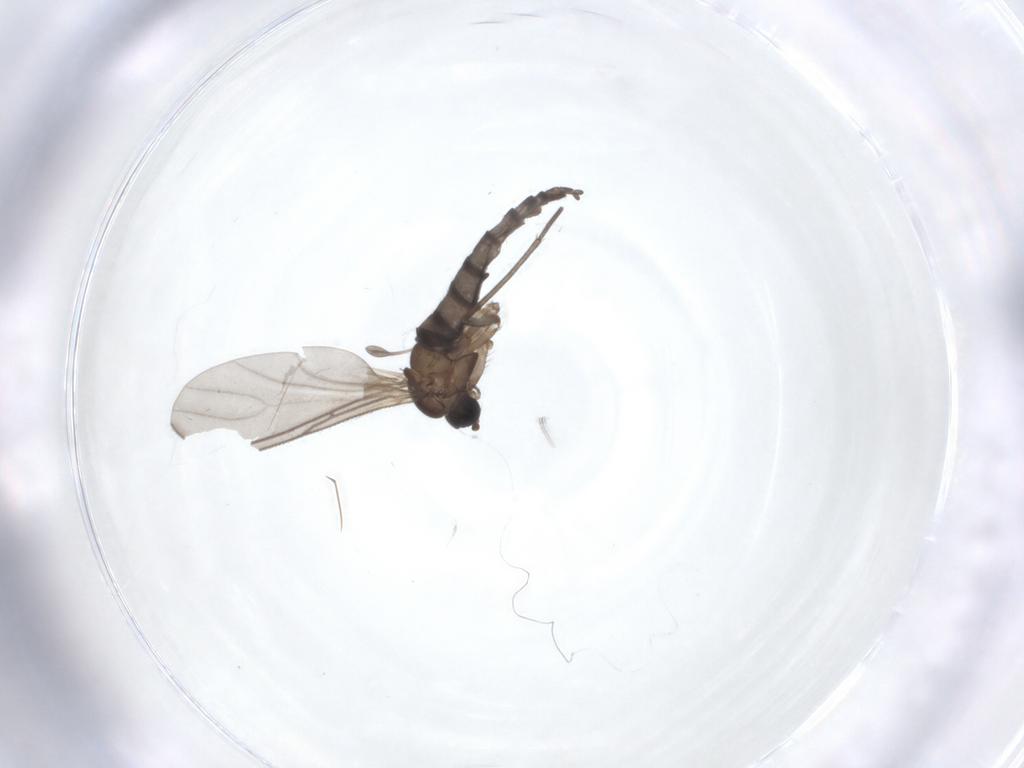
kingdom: Animalia
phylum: Arthropoda
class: Insecta
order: Diptera
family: Sciaridae
